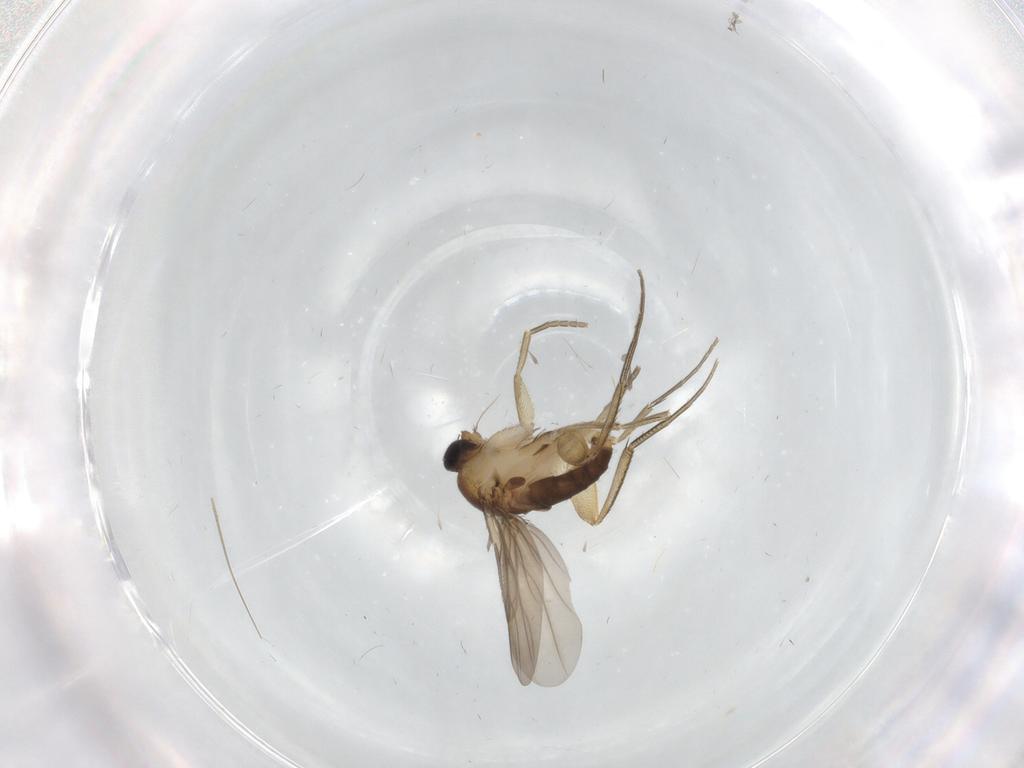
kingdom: Animalia
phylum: Arthropoda
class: Insecta
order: Diptera
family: Phoridae
